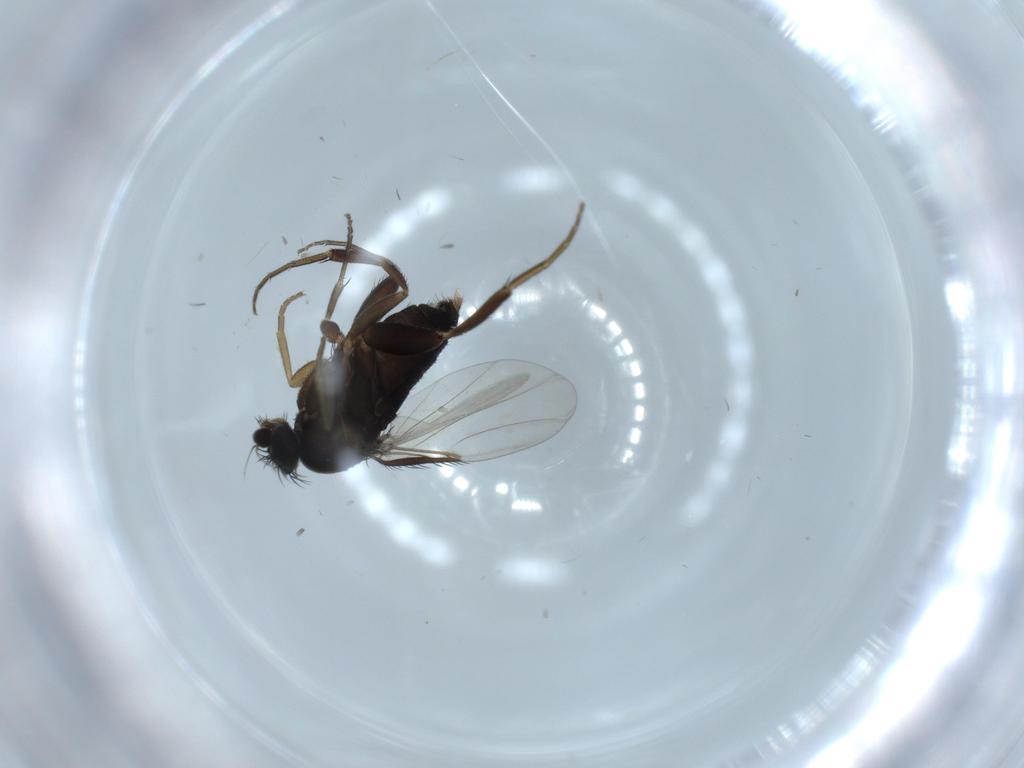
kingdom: Animalia
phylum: Arthropoda
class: Insecta
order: Diptera
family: Phoridae
